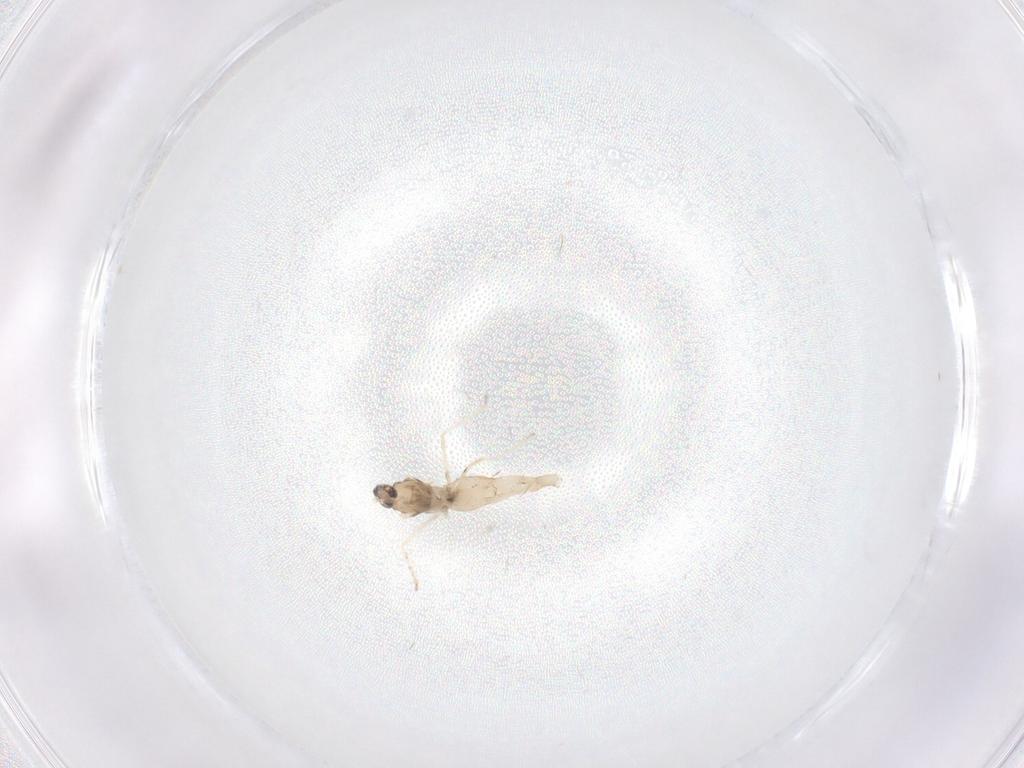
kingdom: Animalia
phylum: Arthropoda
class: Insecta
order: Diptera
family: Cecidomyiidae
